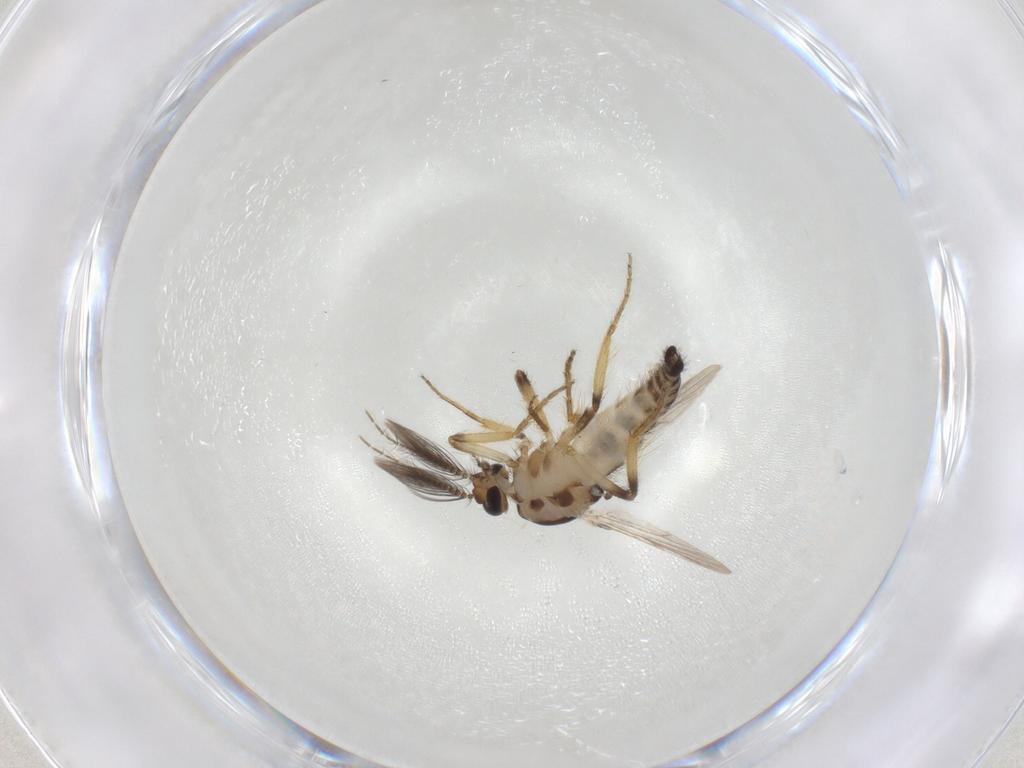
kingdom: Animalia
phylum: Arthropoda
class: Insecta
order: Diptera
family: Ceratopogonidae
